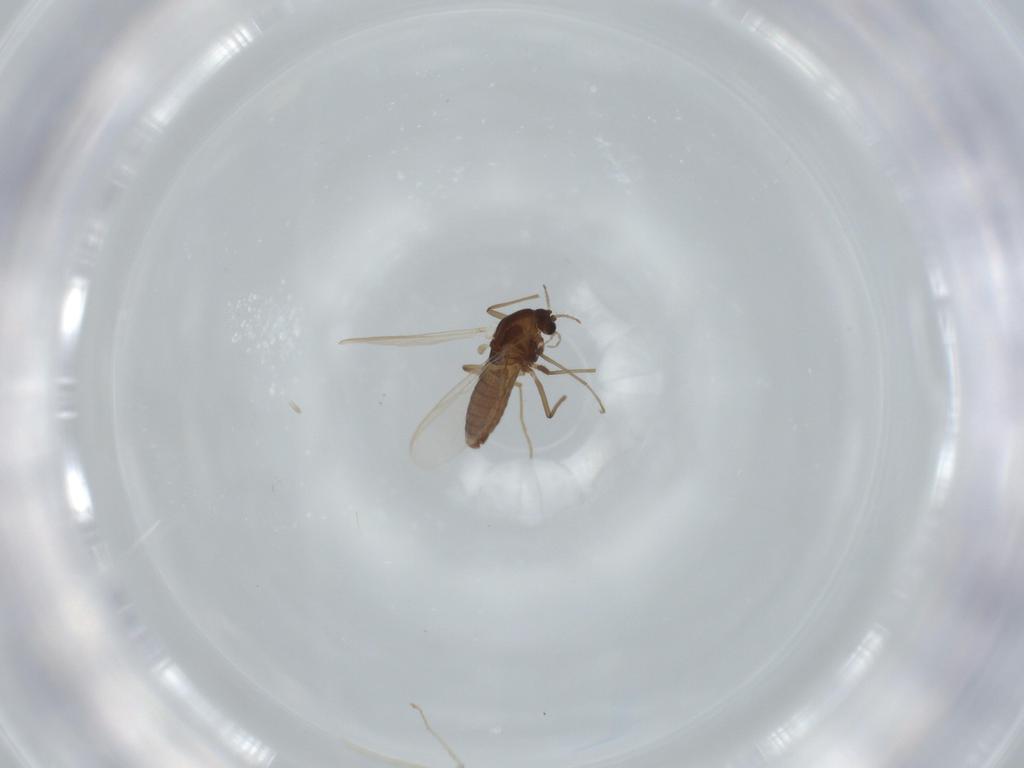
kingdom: Animalia
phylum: Arthropoda
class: Insecta
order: Diptera
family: Chironomidae
